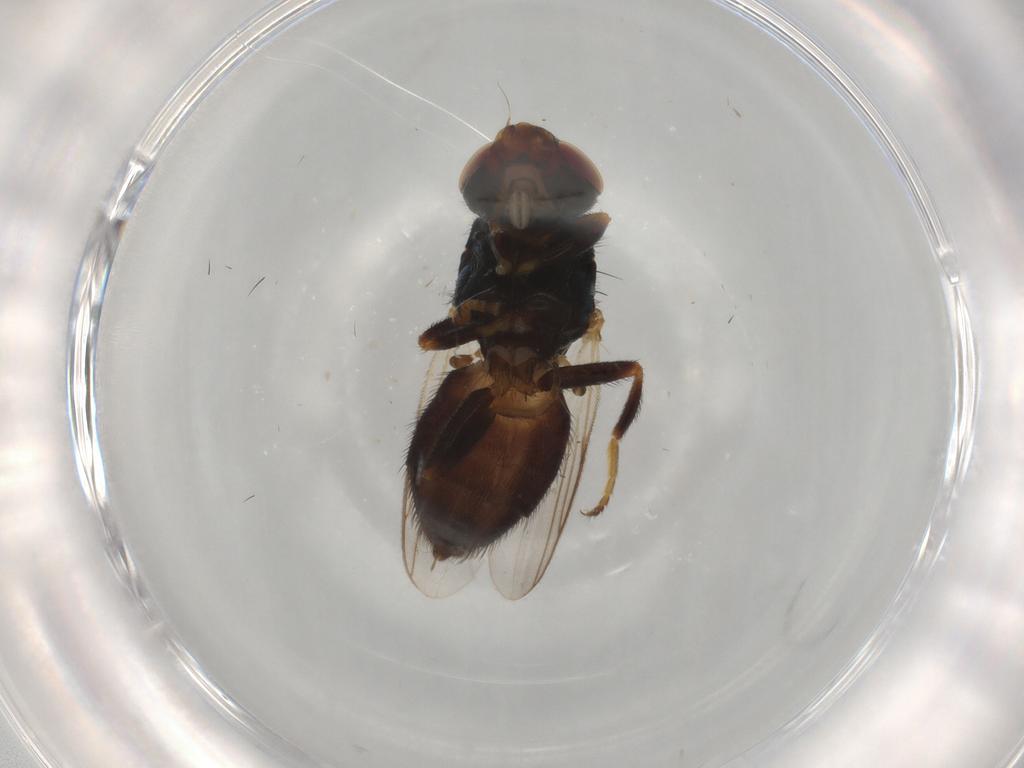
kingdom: Animalia
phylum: Arthropoda
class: Insecta
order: Diptera
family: Chloropidae
